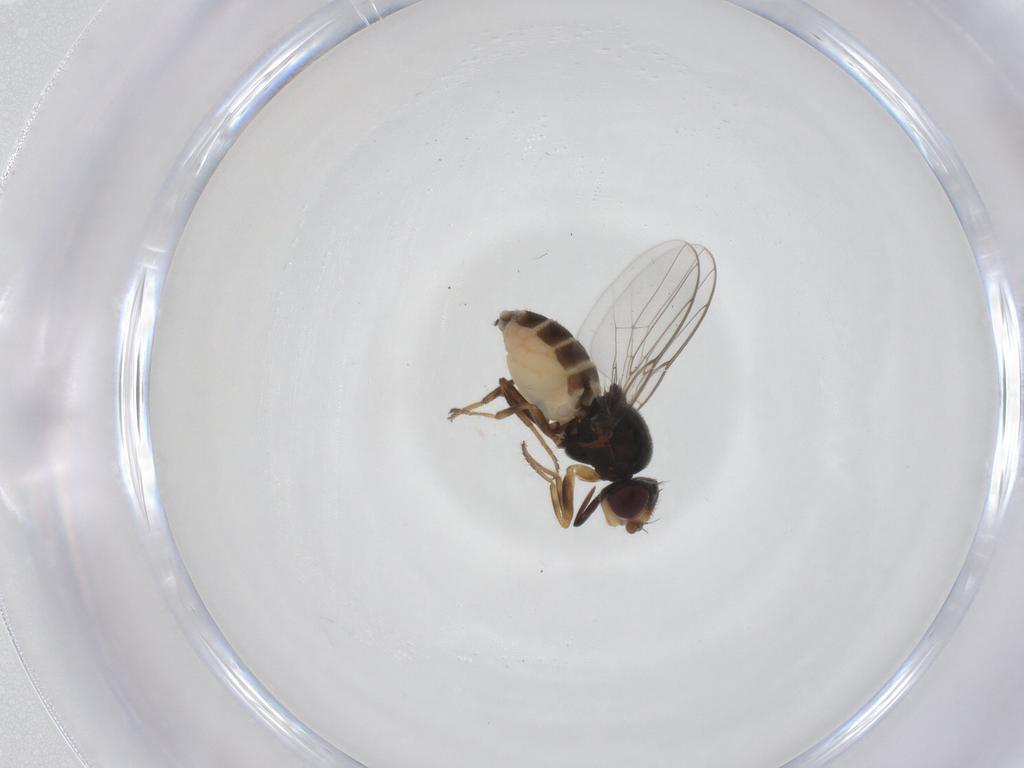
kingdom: Animalia
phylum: Arthropoda
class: Insecta
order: Diptera
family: Chloropidae
